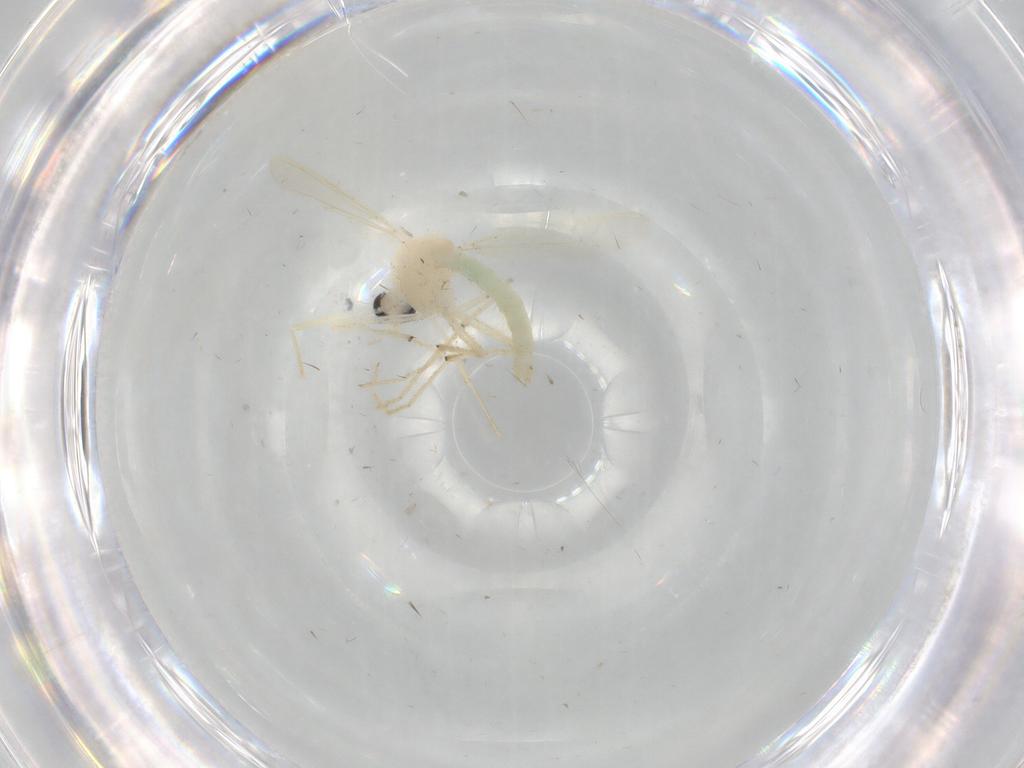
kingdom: Animalia
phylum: Arthropoda
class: Insecta
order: Diptera
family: Chironomidae
